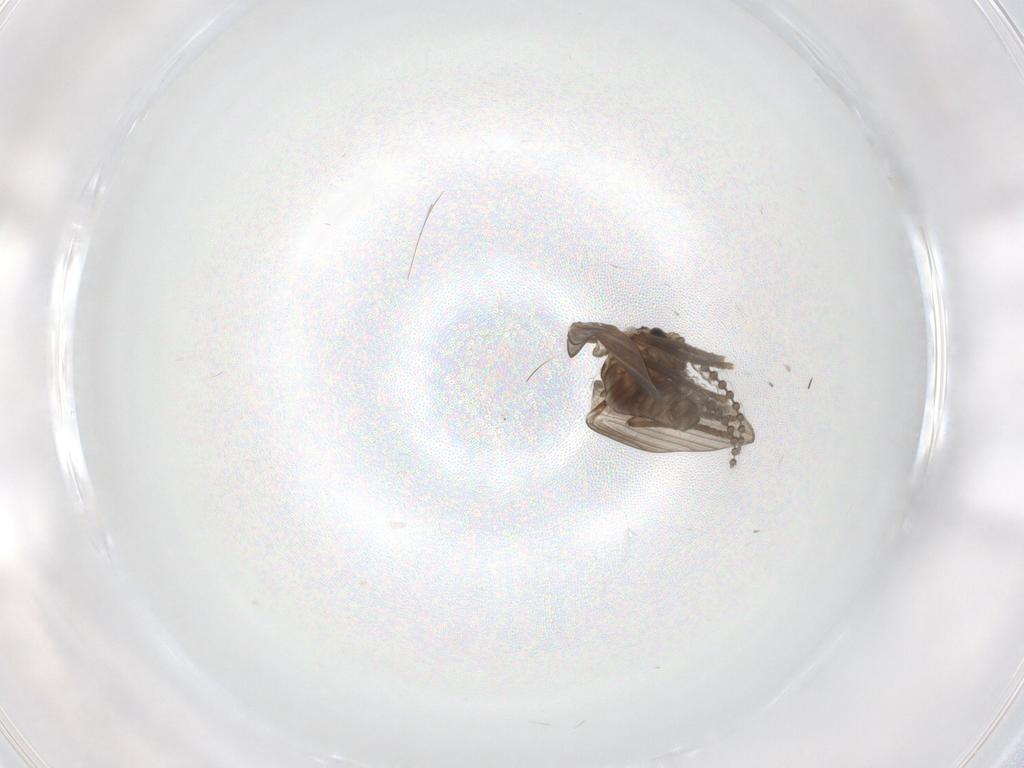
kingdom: Animalia
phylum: Arthropoda
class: Insecta
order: Diptera
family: Psychodidae
